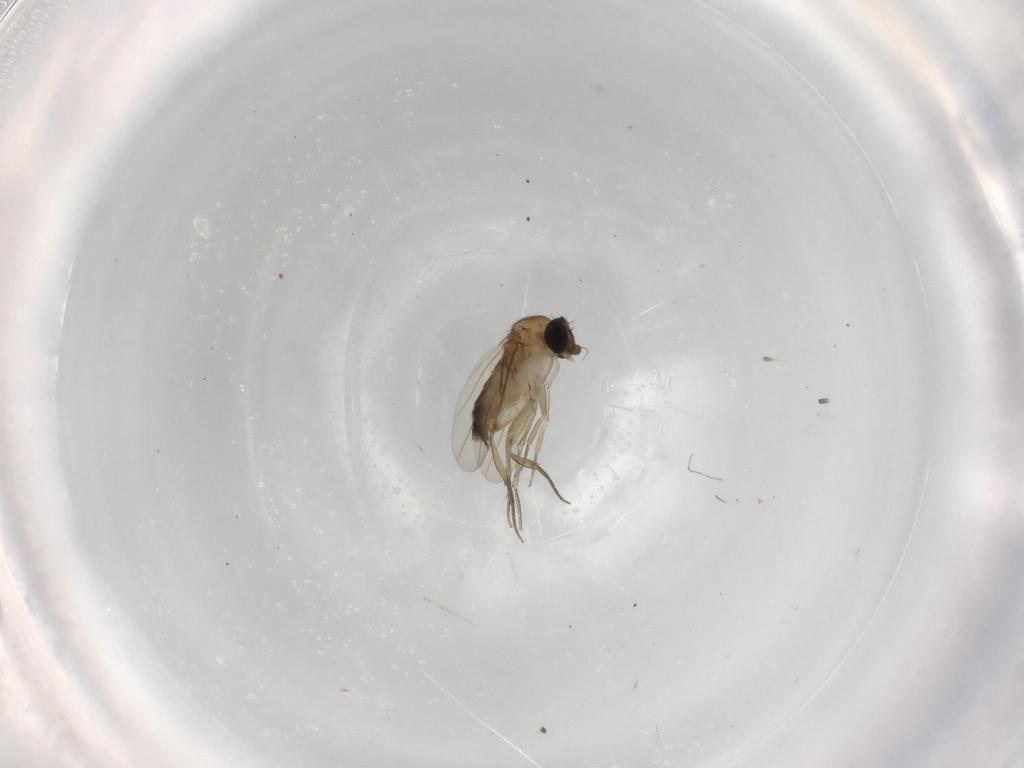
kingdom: Animalia
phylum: Arthropoda
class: Insecta
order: Diptera
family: Phoridae
